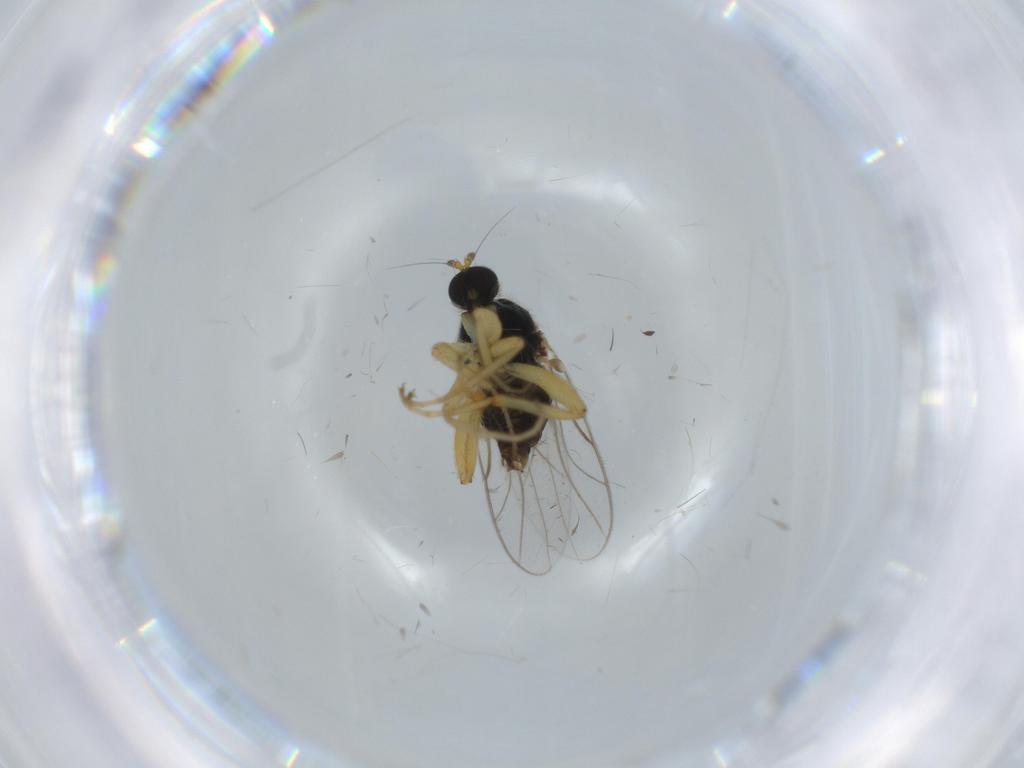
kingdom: Animalia
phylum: Arthropoda
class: Insecta
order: Diptera
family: Hybotidae
